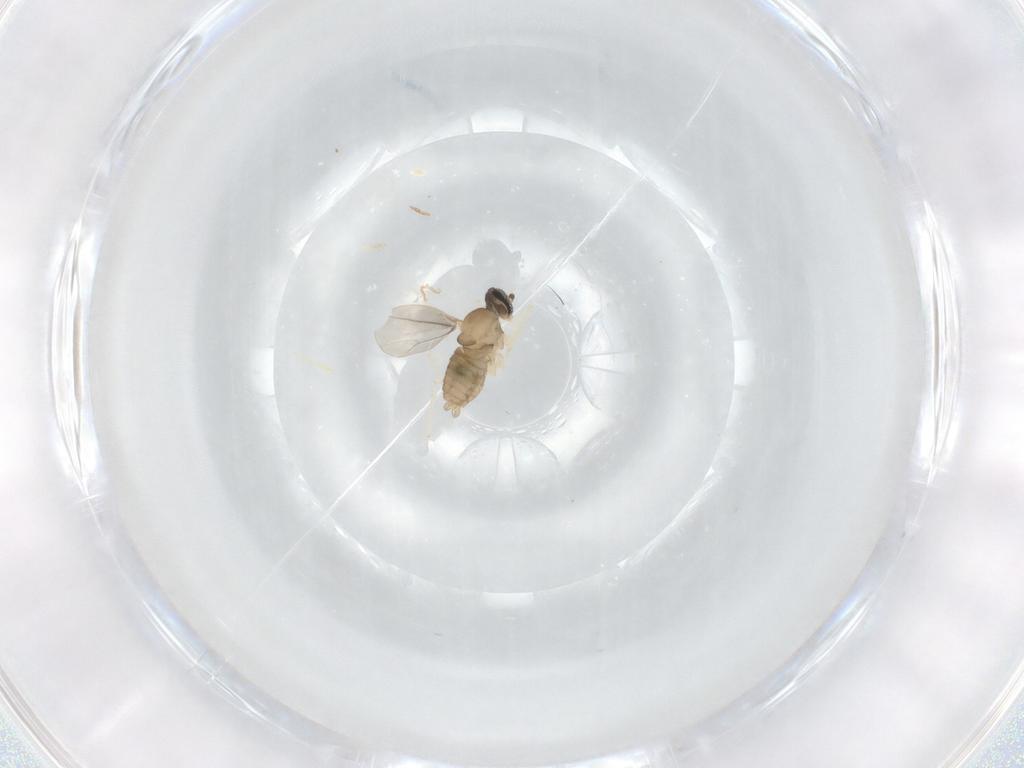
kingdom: Animalia
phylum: Arthropoda
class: Insecta
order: Diptera
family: Cecidomyiidae
